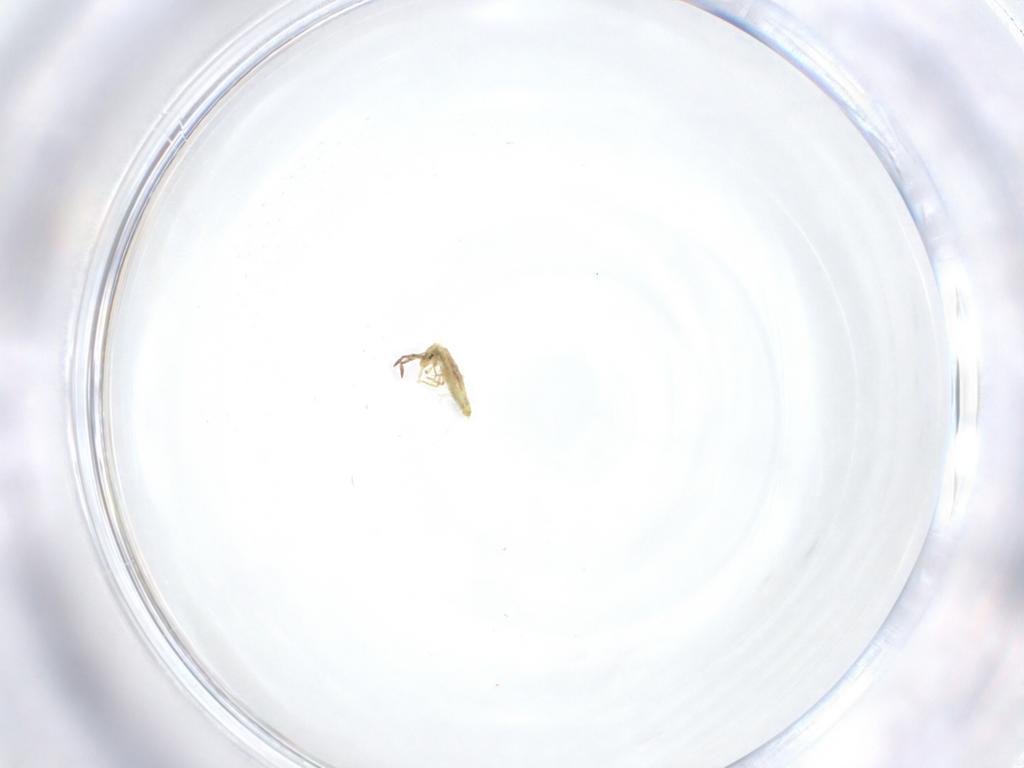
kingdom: Animalia
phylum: Arthropoda
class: Collembola
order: Entomobryomorpha
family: Entomobryidae
